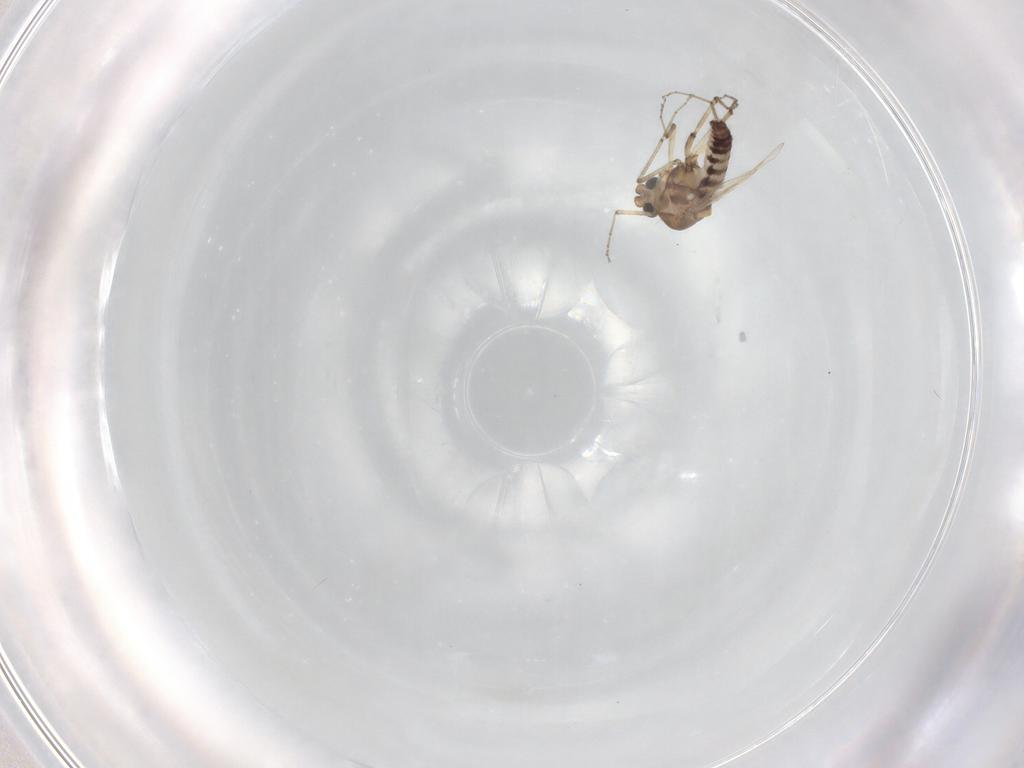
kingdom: Animalia
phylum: Arthropoda
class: Insecta
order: Diptera
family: Ceratopogonidae
